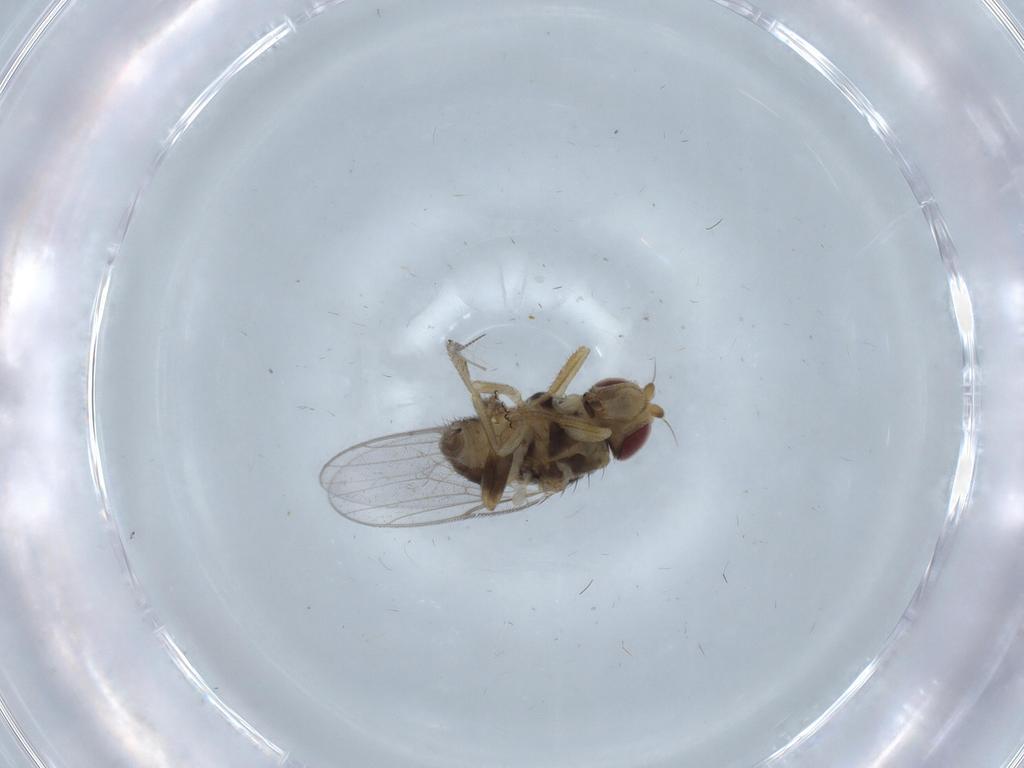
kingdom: Animalia
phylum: Arthropoda
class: Insecta
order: Diptera
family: Chloropidae
